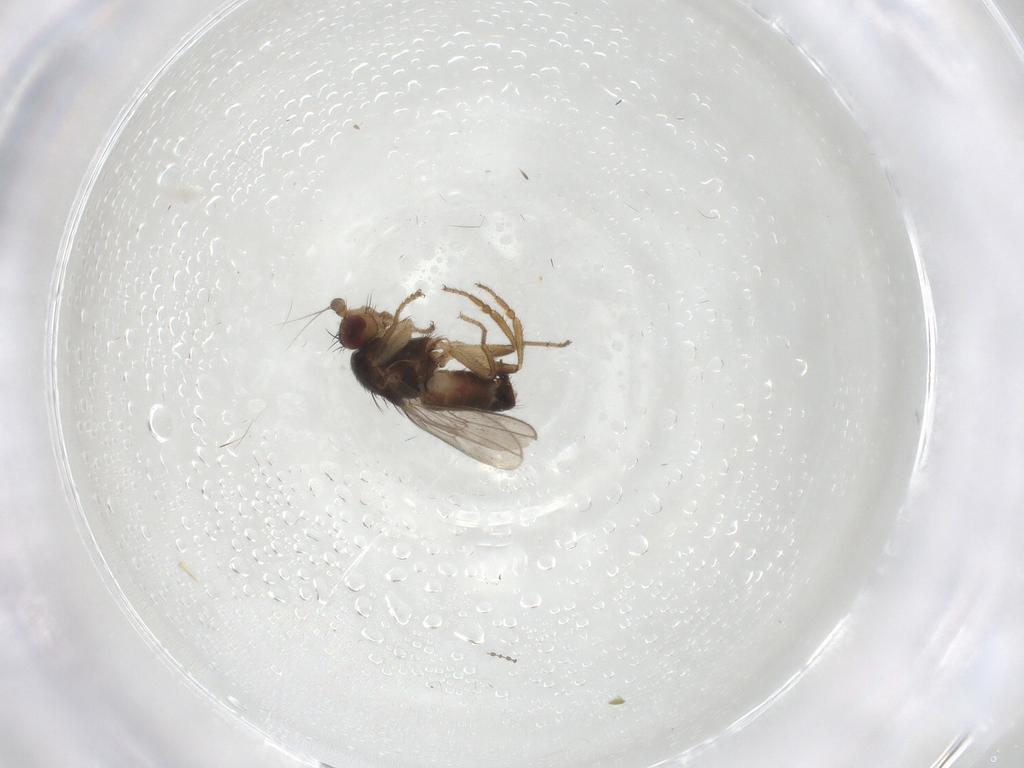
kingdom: Animalia
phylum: Arthropoda
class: Insecta
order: Diptera
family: Sphaeroceridae
